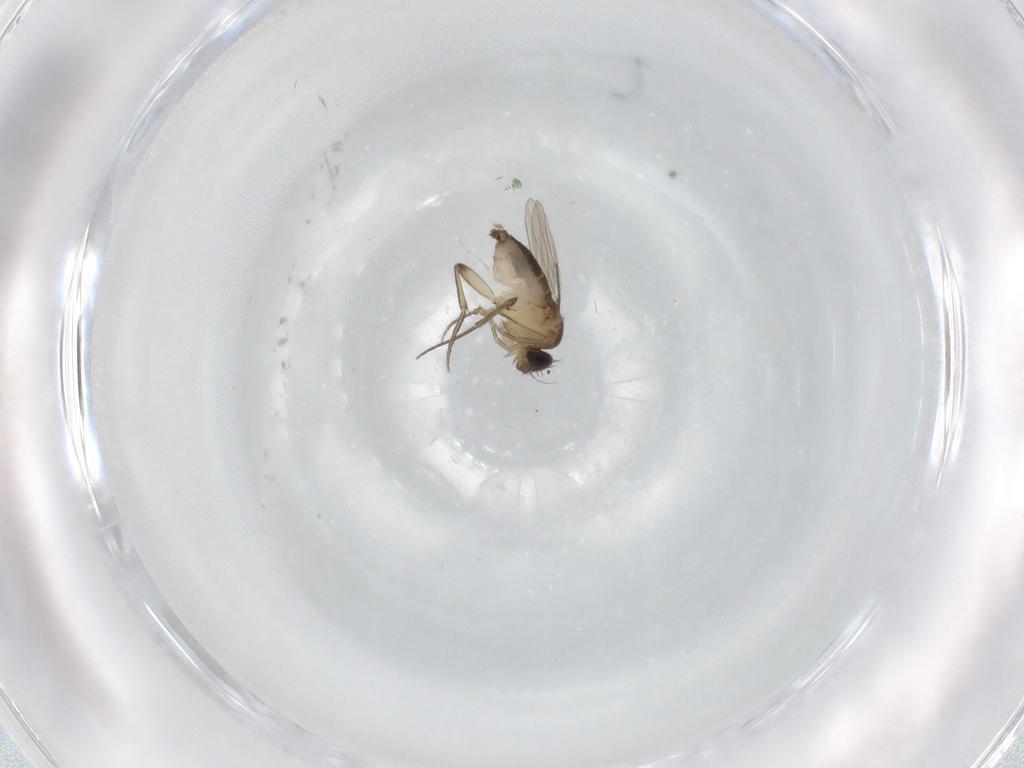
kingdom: Animalia
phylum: Arthropoda
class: Insecta
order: Diptera
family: Phoridae
